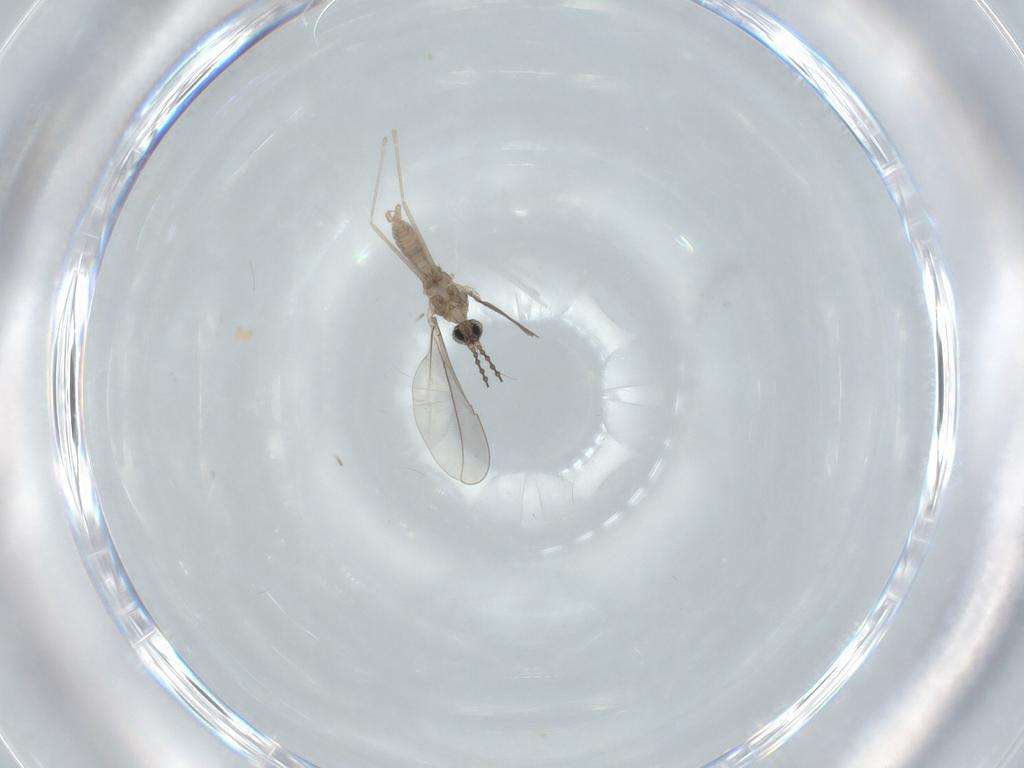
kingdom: Animalia
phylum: Arthropoda
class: Insecta
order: Diptera
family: Cecidomyiidae
